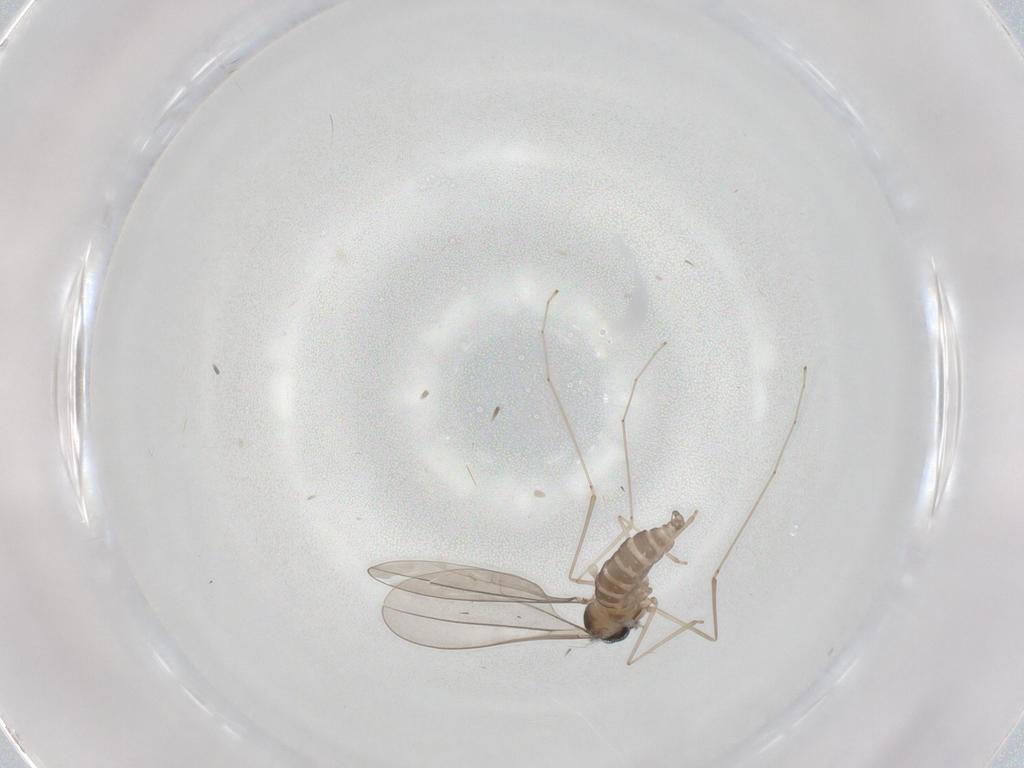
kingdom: Animalia
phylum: Arthropoda
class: Insecta
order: Diptera
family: Cecidomyiidae
